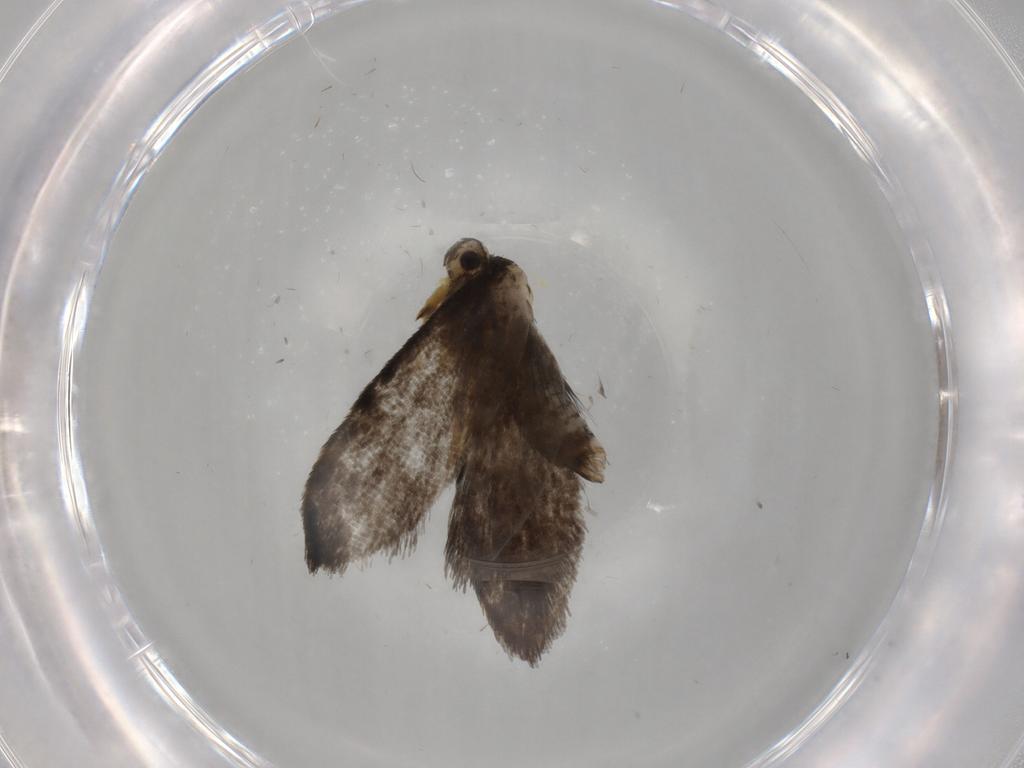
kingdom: Animalia
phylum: Arthropoda
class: Insecta
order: Lepidoptera
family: Psychidae
